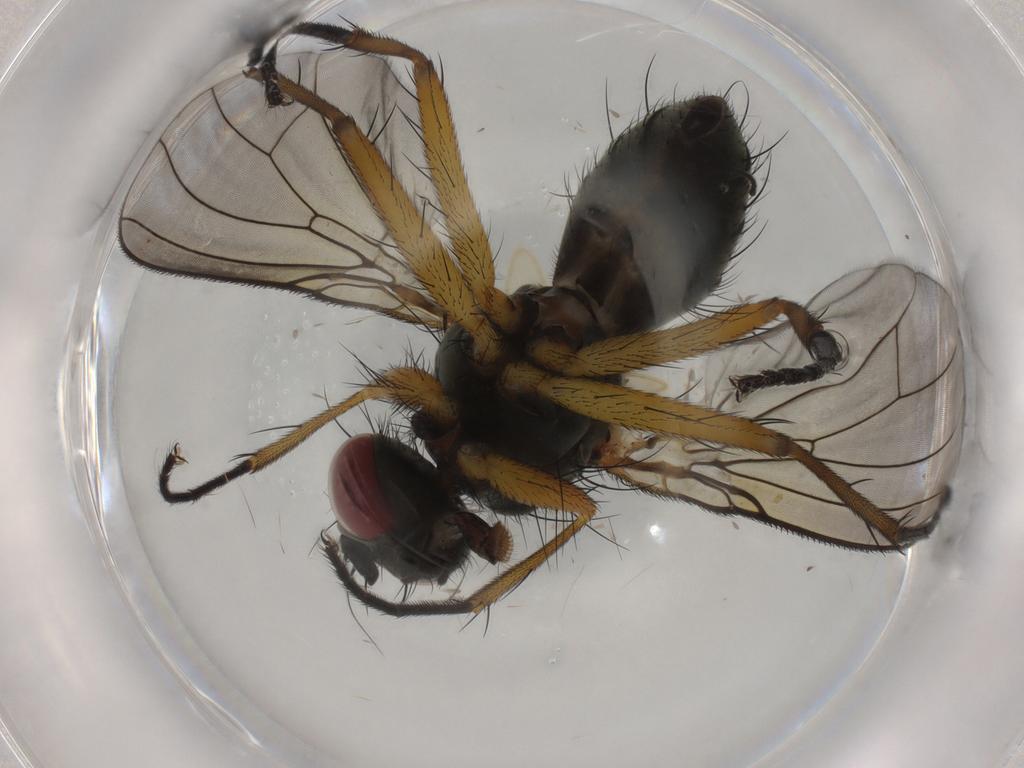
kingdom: Animalia
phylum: Arthropoda
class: Insecta
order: Diptera
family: Muscidae
